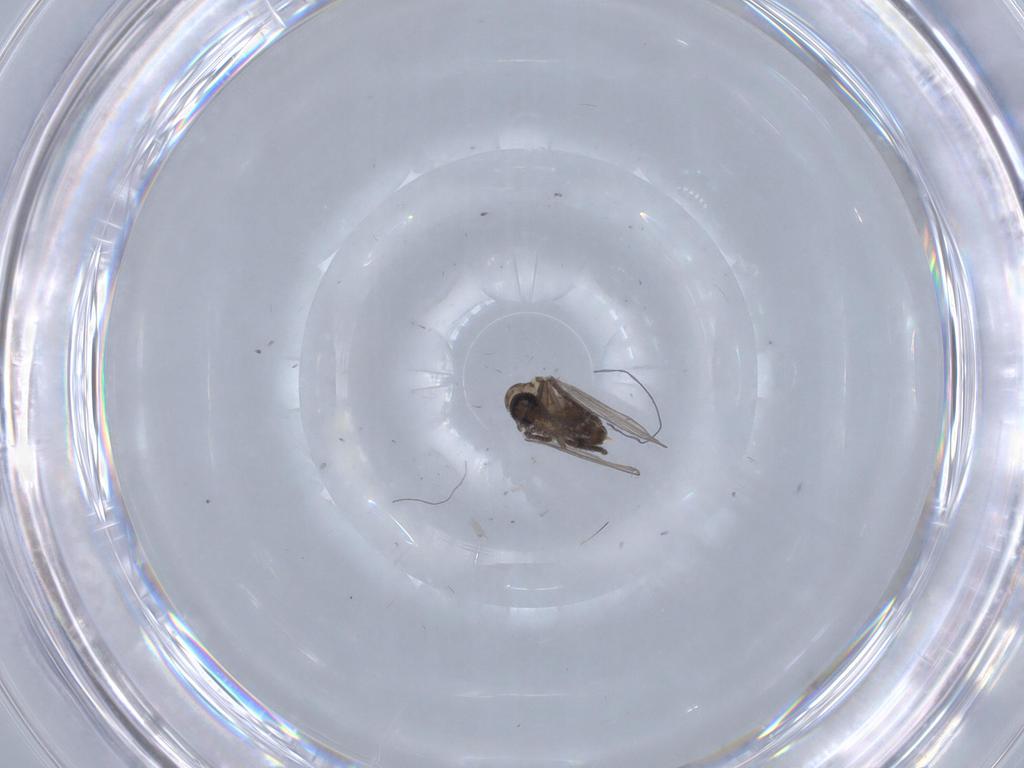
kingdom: Animalia
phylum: Arthropoda
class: Insecta
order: Diptera
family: Psychodidae
